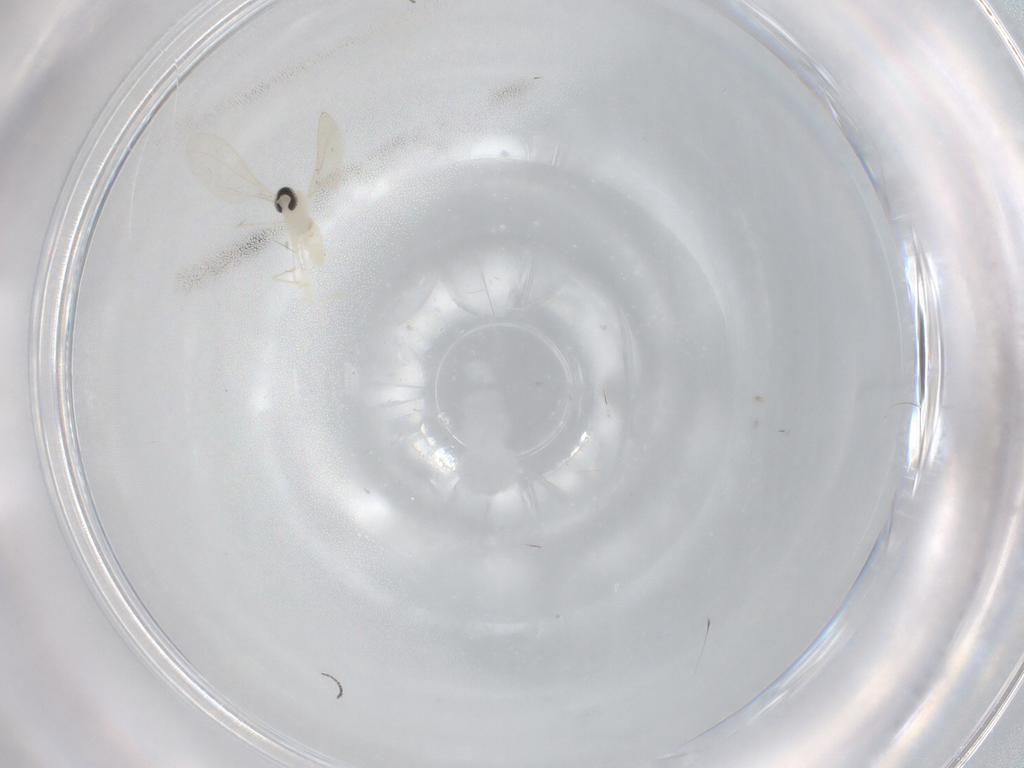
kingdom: Animalia
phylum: Arthropoda
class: Insecta
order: Diptera
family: Cecidomyiidae
